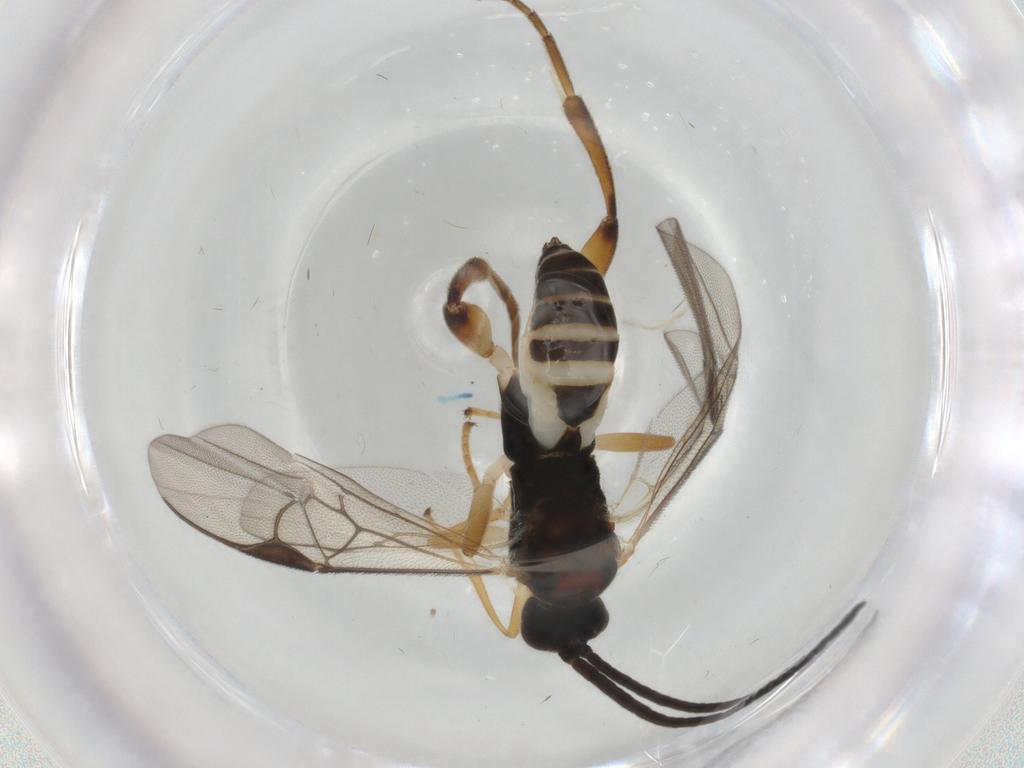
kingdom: Animalia
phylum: Arthropoda
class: Insecta
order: Hymenoptera
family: Braconidae
